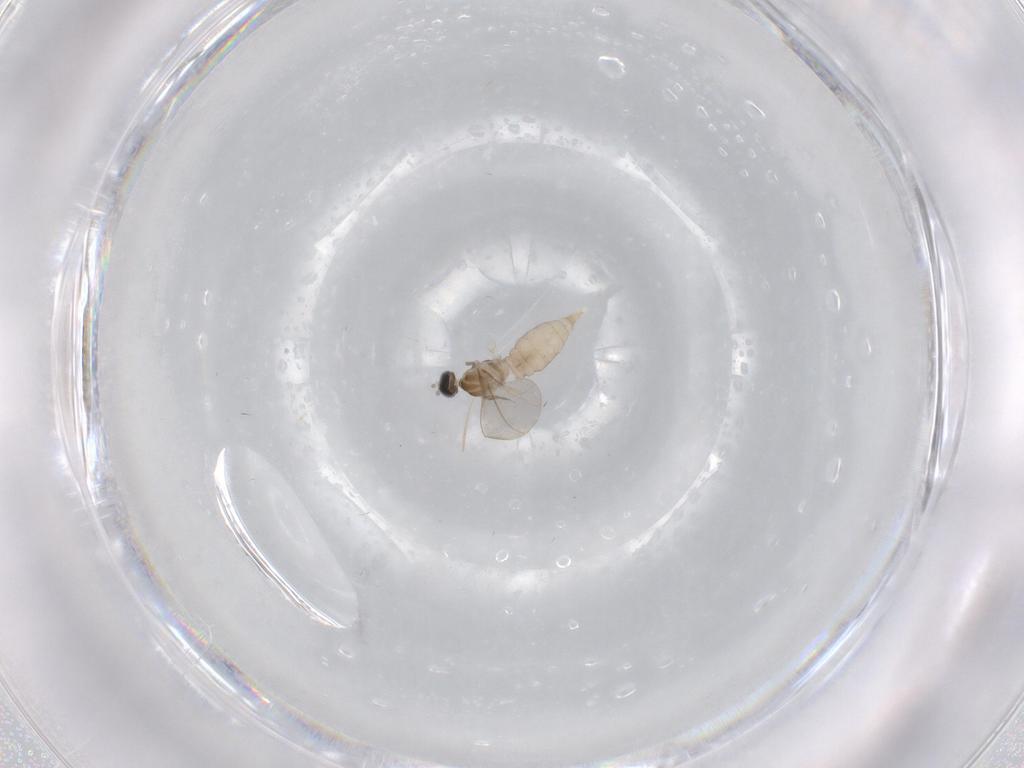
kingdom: Animalia
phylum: Arthropoda
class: Insecta
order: Diptera
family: Cecidomyiidae
